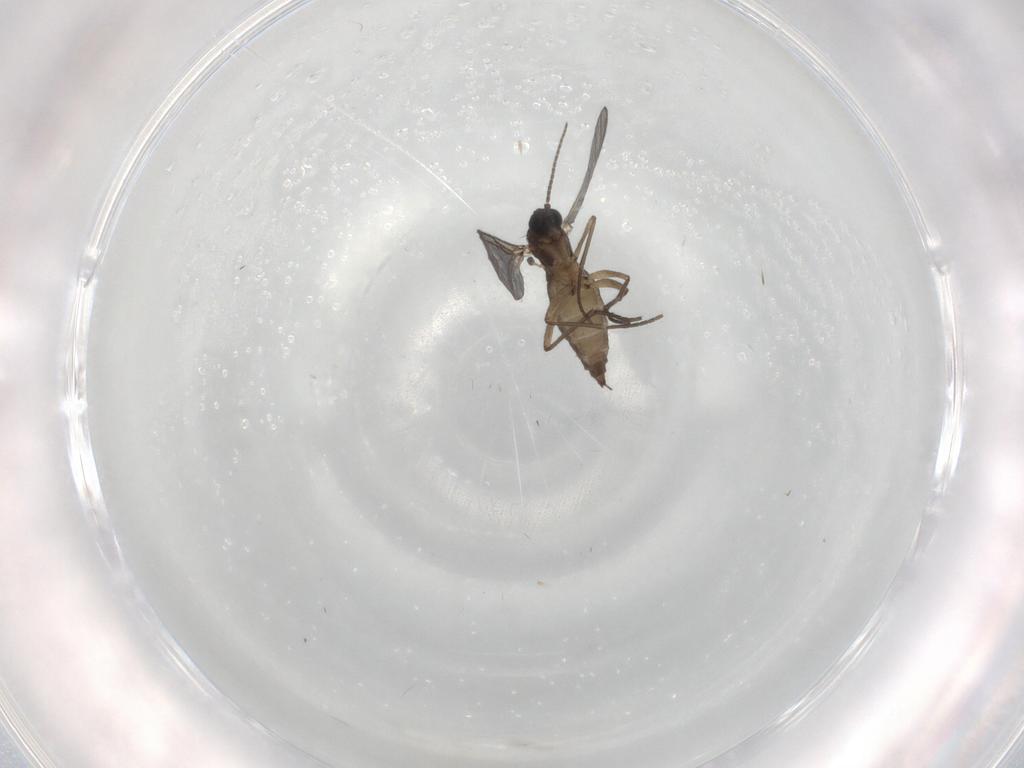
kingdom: Animalia
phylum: Arthropoda
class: Insecta
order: Diptera
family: Sciaridae
